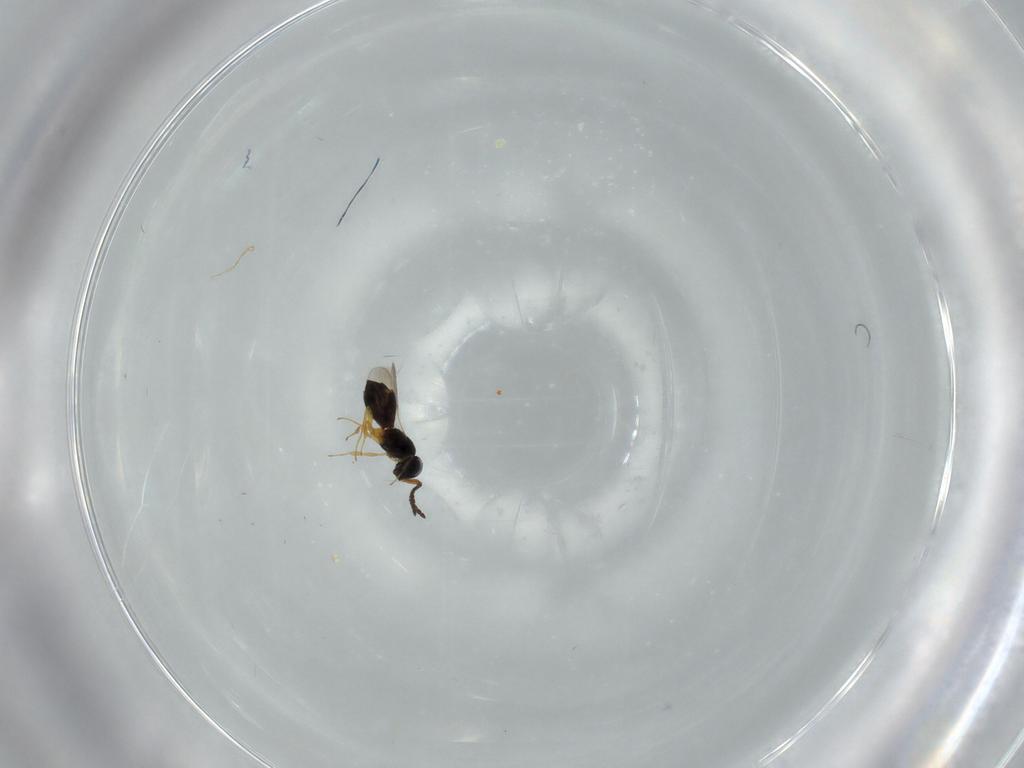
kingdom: Animalia
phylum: Arthropoda
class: Insecta
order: Hymenoptera
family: Scelionidae
